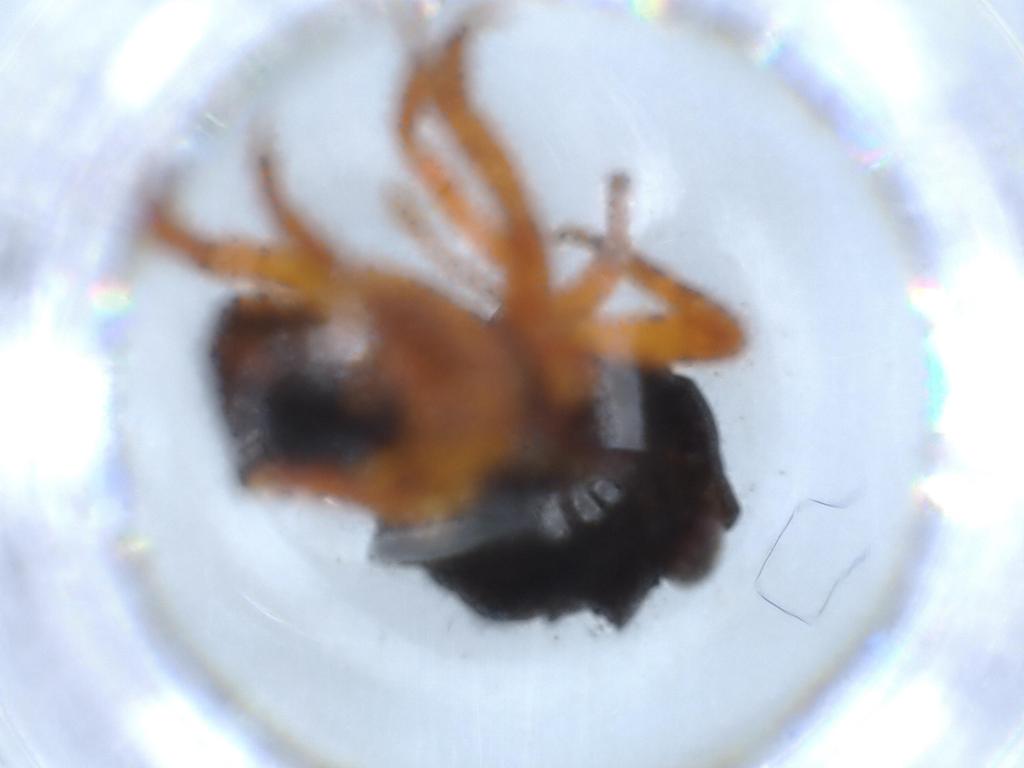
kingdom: Animalia
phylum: Arthropoda
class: Insecta
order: Hemiptera
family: Fulgoridae
